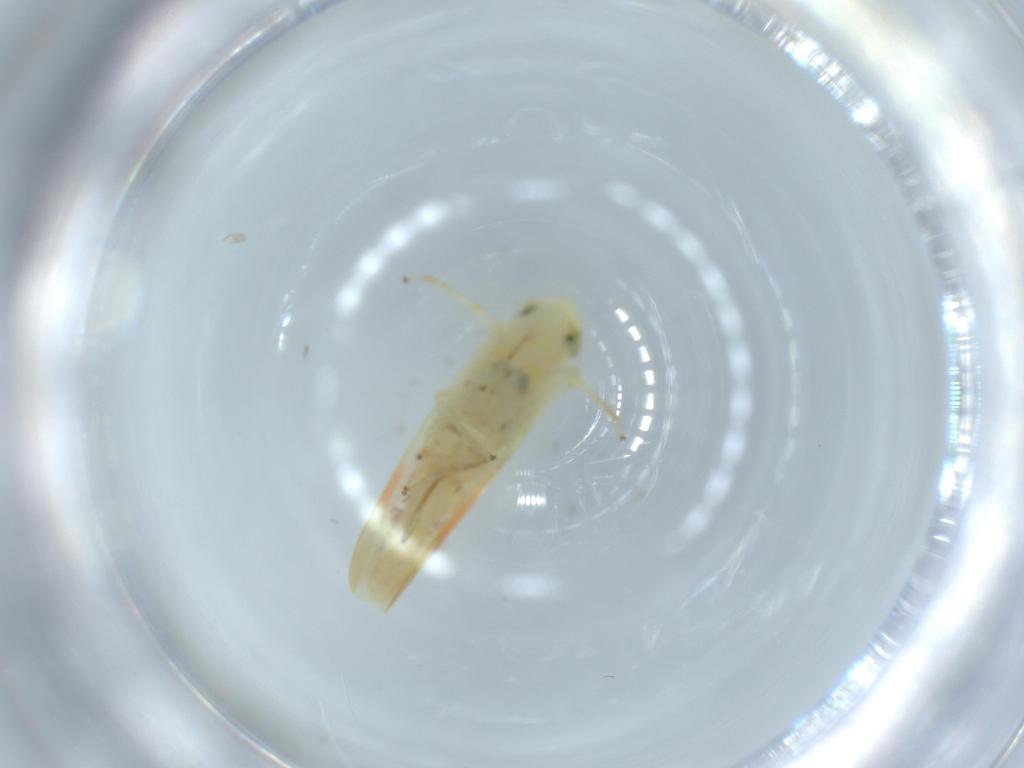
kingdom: Animalia
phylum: Arthropoda
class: Insecta
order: Hemiptera
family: Cicadellidae
